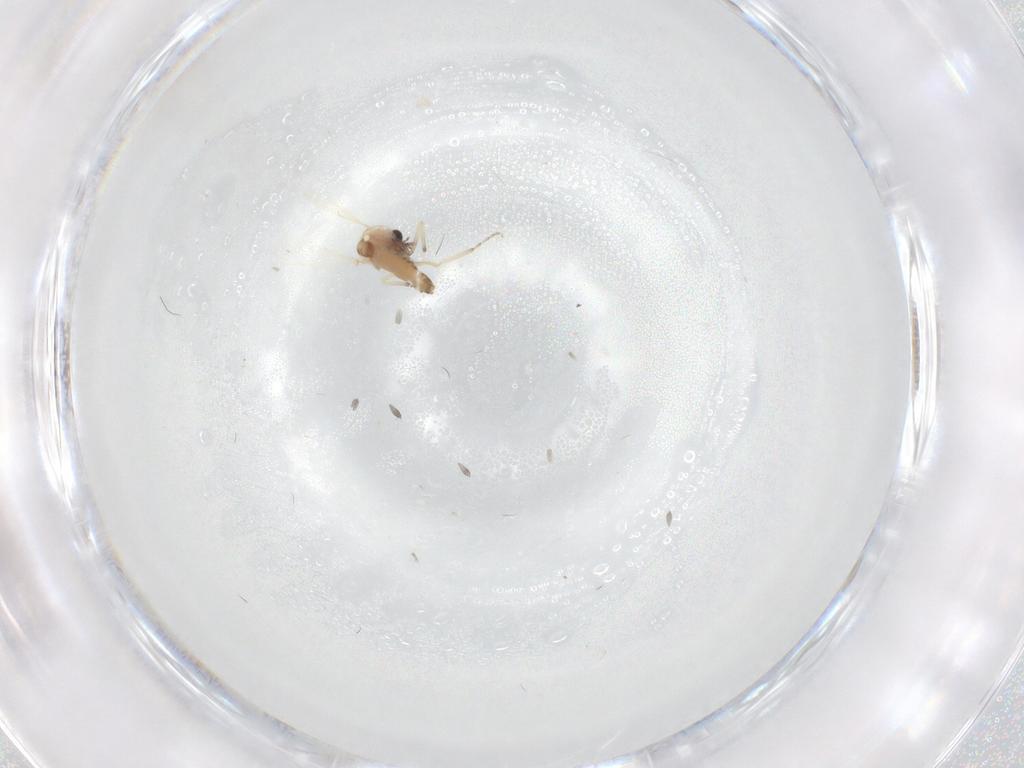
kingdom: Animalia
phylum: Arthropoda
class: Insecta
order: Diptera
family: Ceratopogonidae
